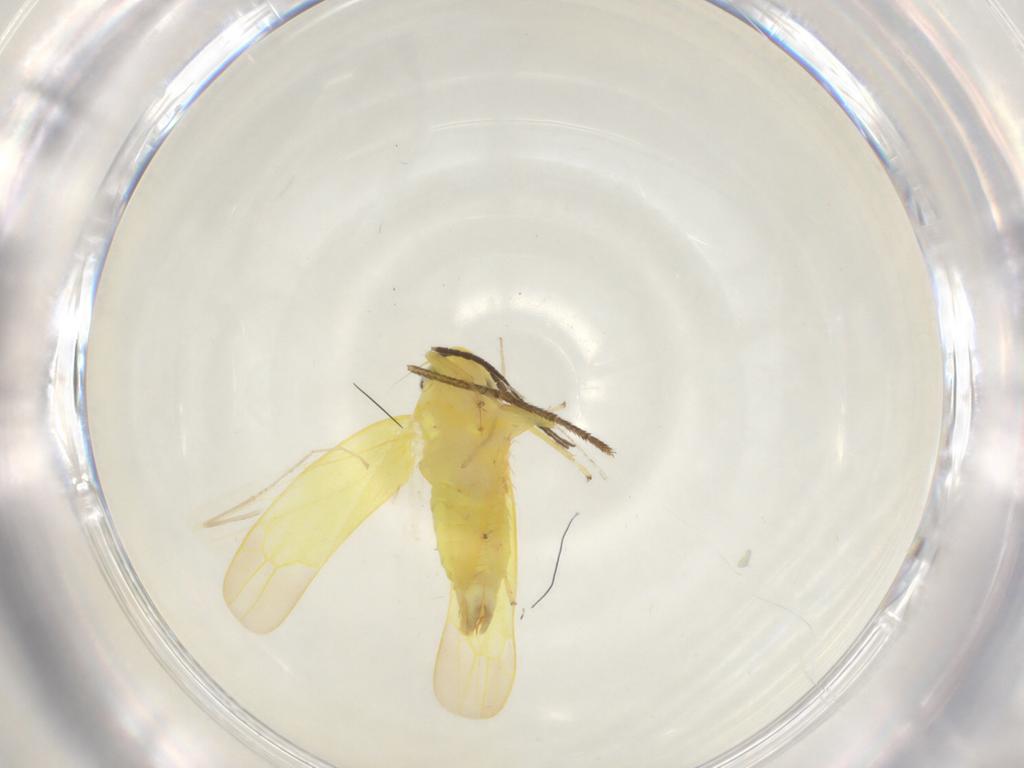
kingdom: Animalia
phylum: Arthropoda
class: Insecta
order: Hemiptera
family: Cicadellidae
